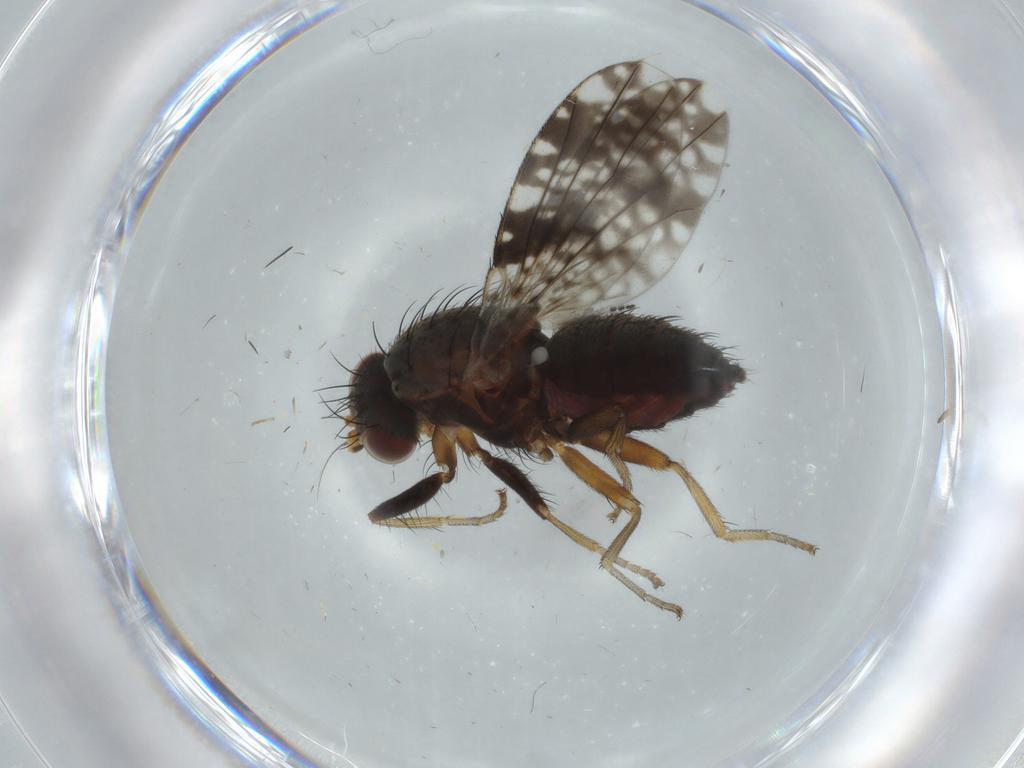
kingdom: Animalia
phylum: Arthropoda
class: Insecta
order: Diptera
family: Tephritidae
